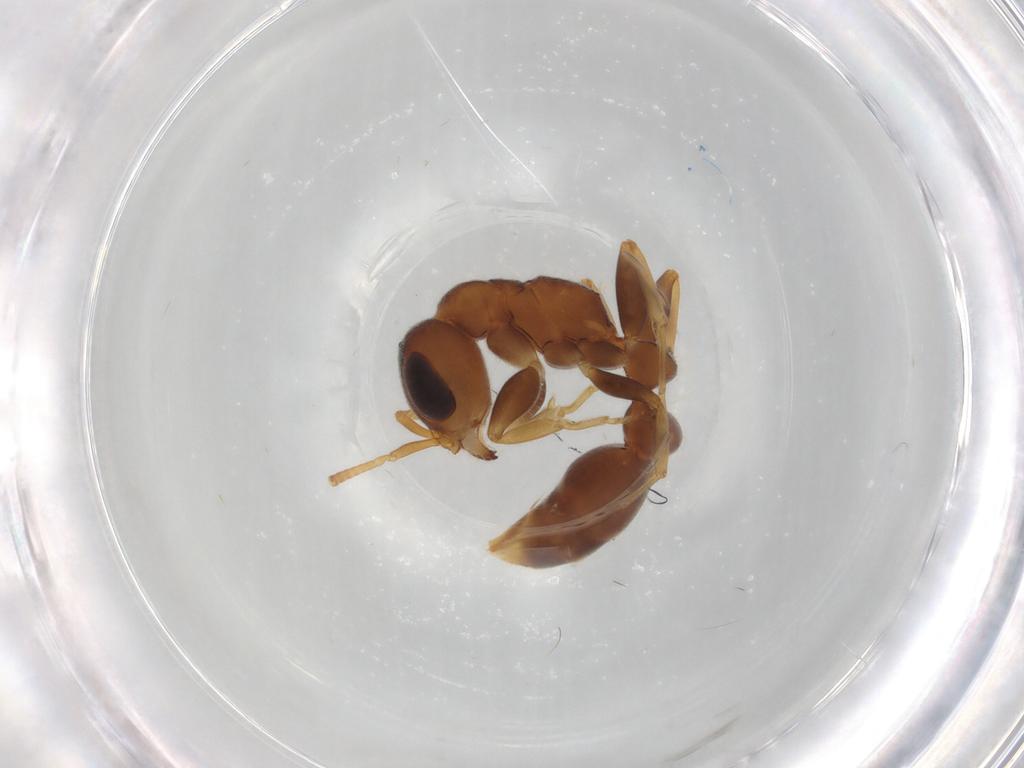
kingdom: Animalia
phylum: Arthropoda
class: Insecta
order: Hymenoptera
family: Formicidae
